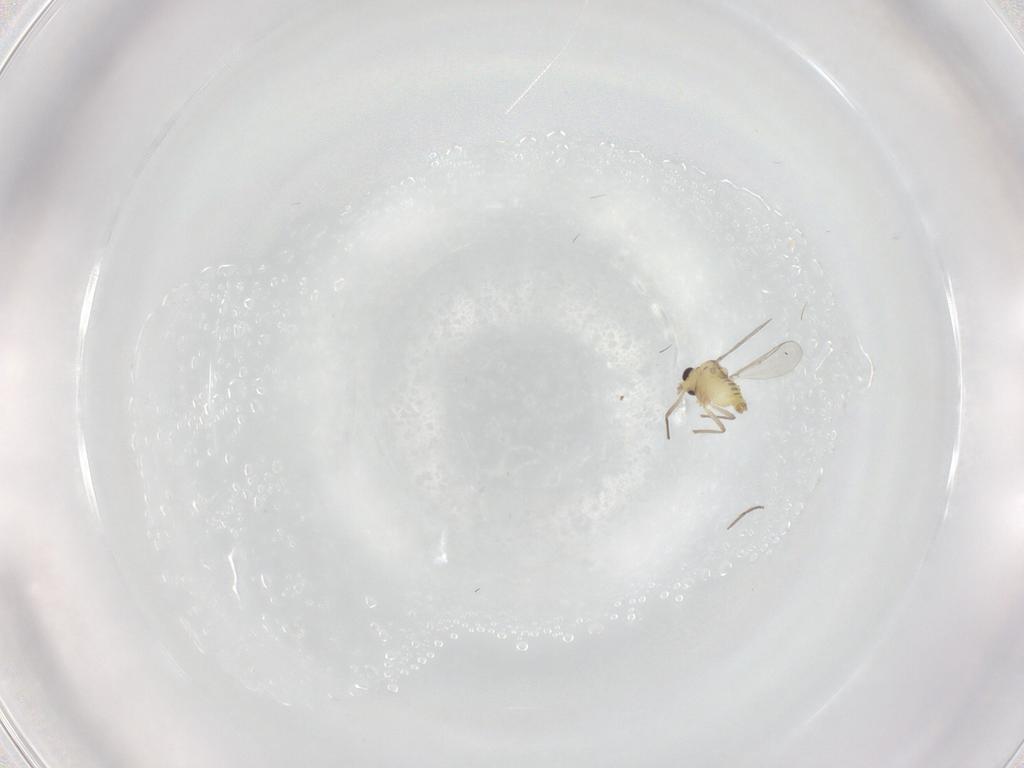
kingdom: Animalia
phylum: Arthropoda
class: Insecta
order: Diptera
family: Chironomidae
